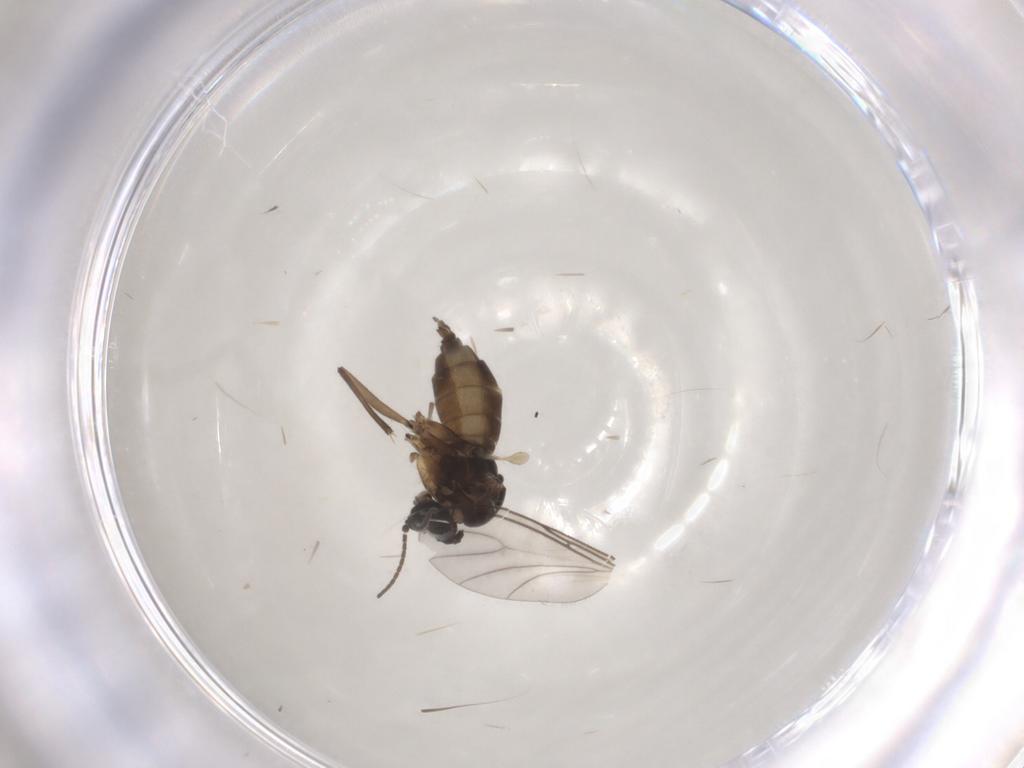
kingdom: Animalia
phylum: Arthropoda
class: Insecta
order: Diptera
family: Sciaridae
